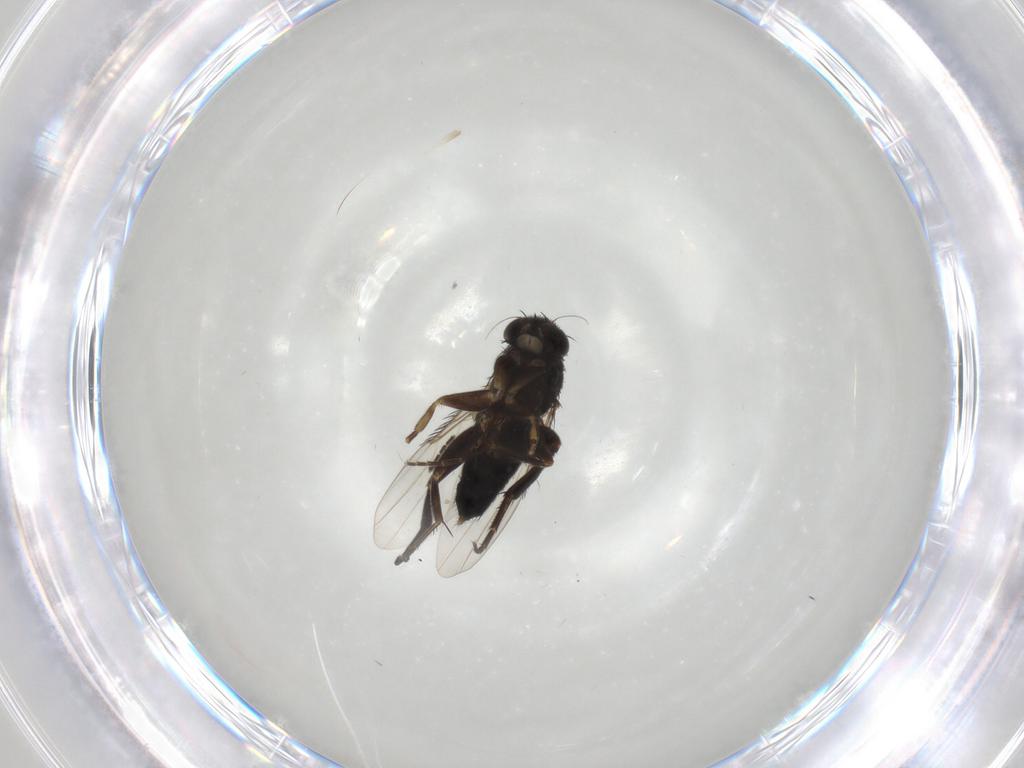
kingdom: Animalia
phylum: Arthropoda
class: Insecta
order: Diptera
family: Phoridae
